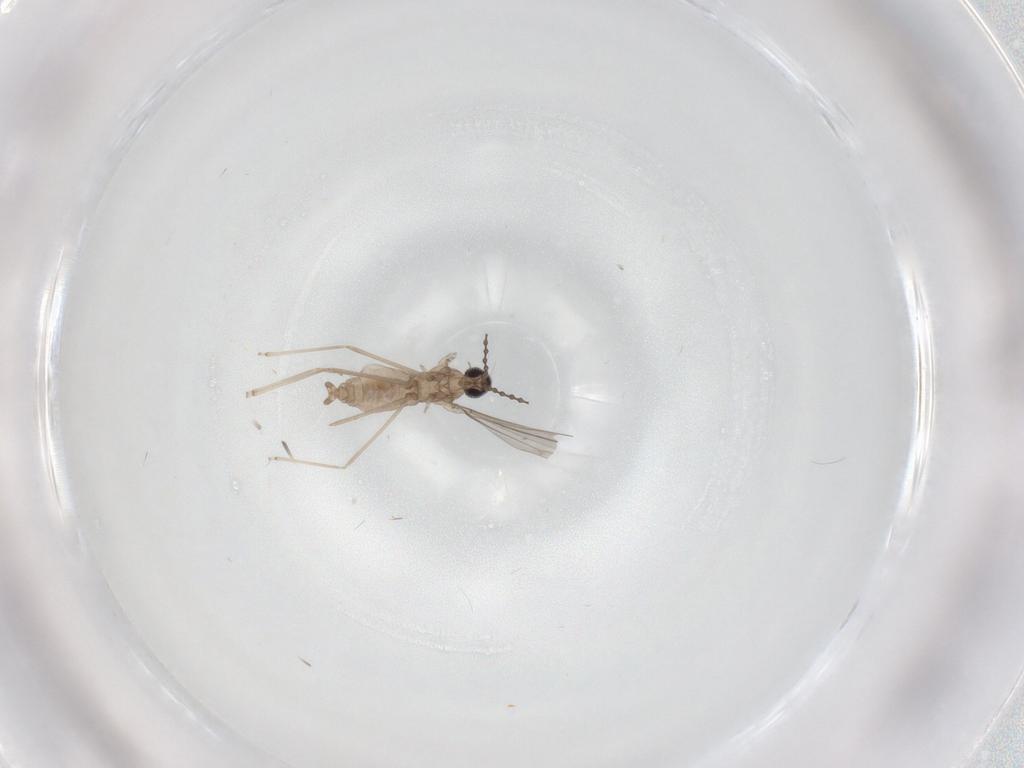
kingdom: Animalia
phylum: Arthropoda
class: Insecta
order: Diptera
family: Cecidomyiidae
